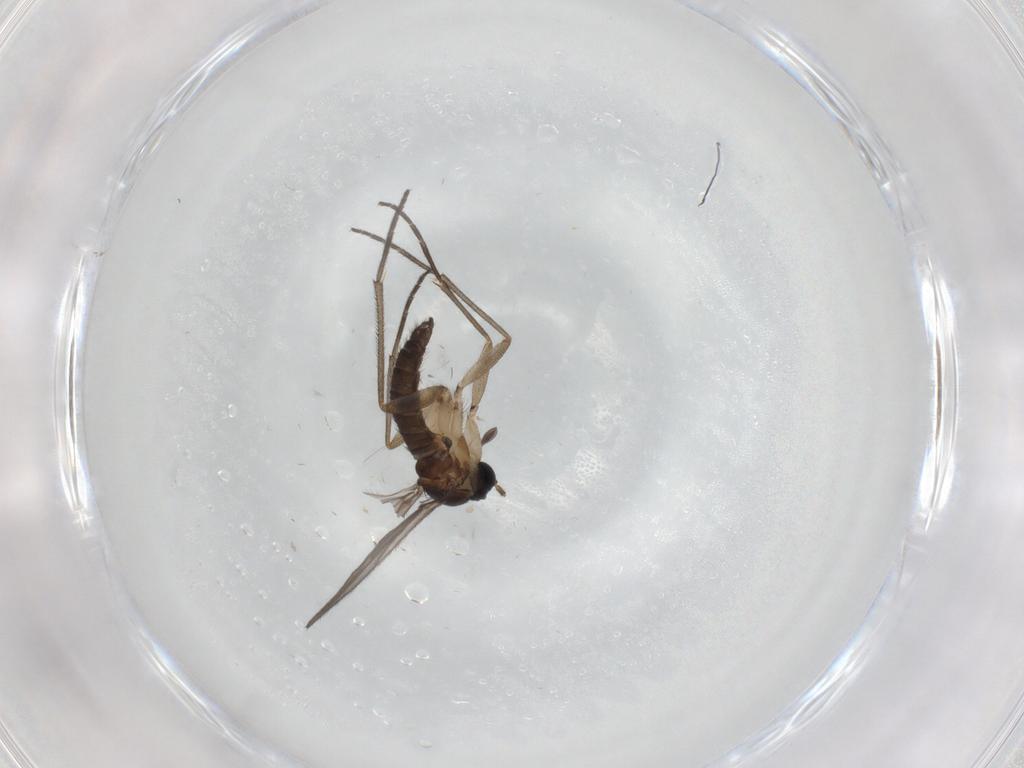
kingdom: Animalia
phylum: Arthropoda
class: Insecta
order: Diptera
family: Sciaridae
